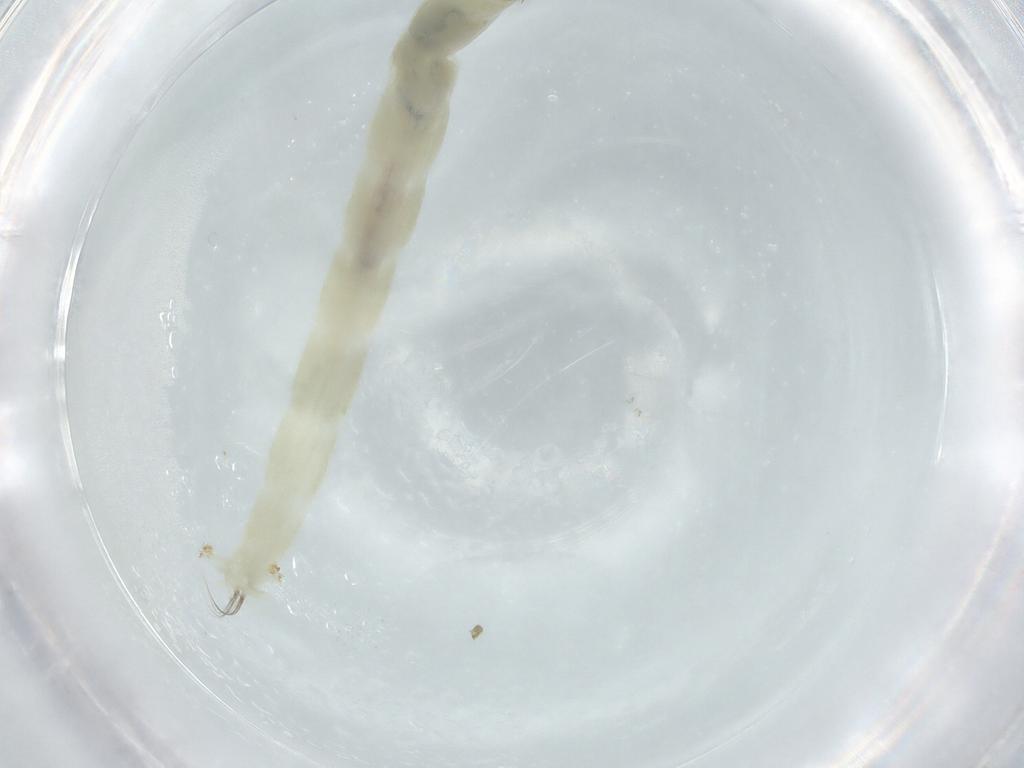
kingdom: Animalia
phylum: Arthropoda
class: Insecta
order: Diptera
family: Chironomidae
